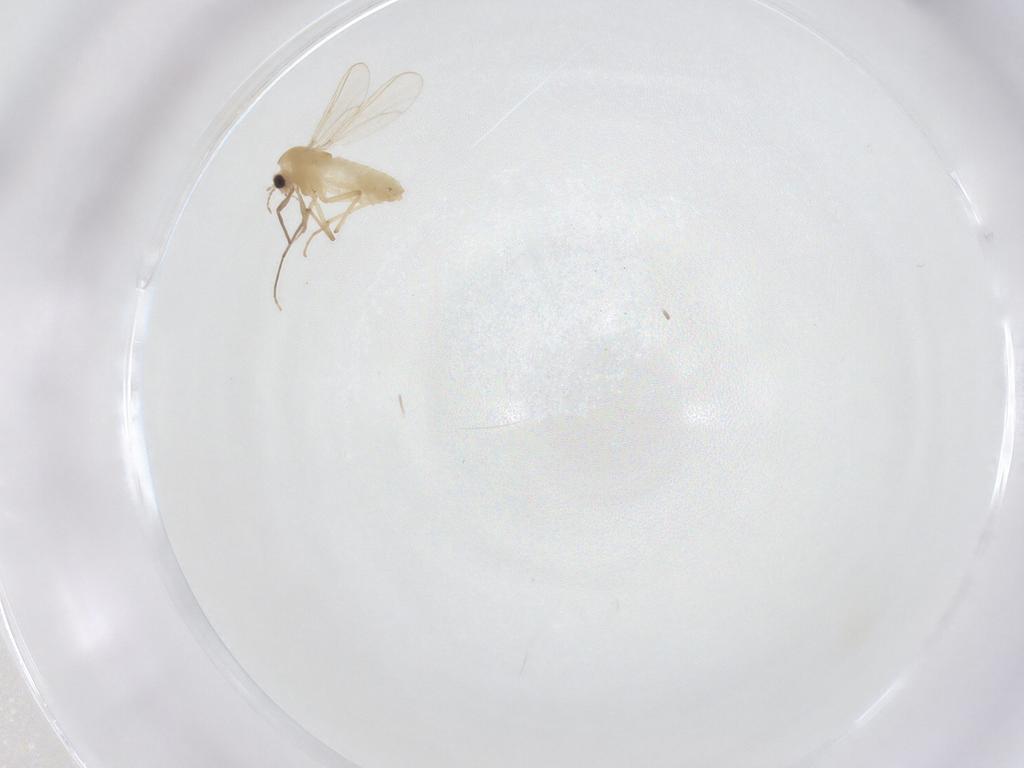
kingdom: Animalia
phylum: Arthropoda
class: Insecta
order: Diptera
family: Chironomidae
